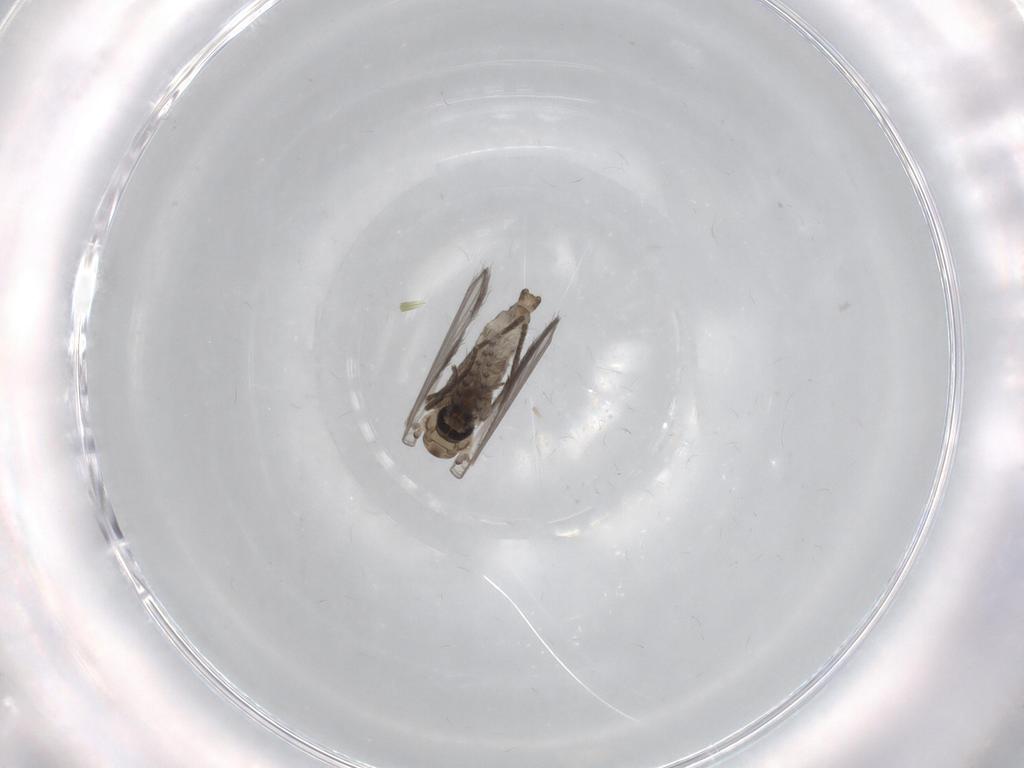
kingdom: Animalia
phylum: Arthropoda
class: Insecta
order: Diptera
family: Psychodidae
